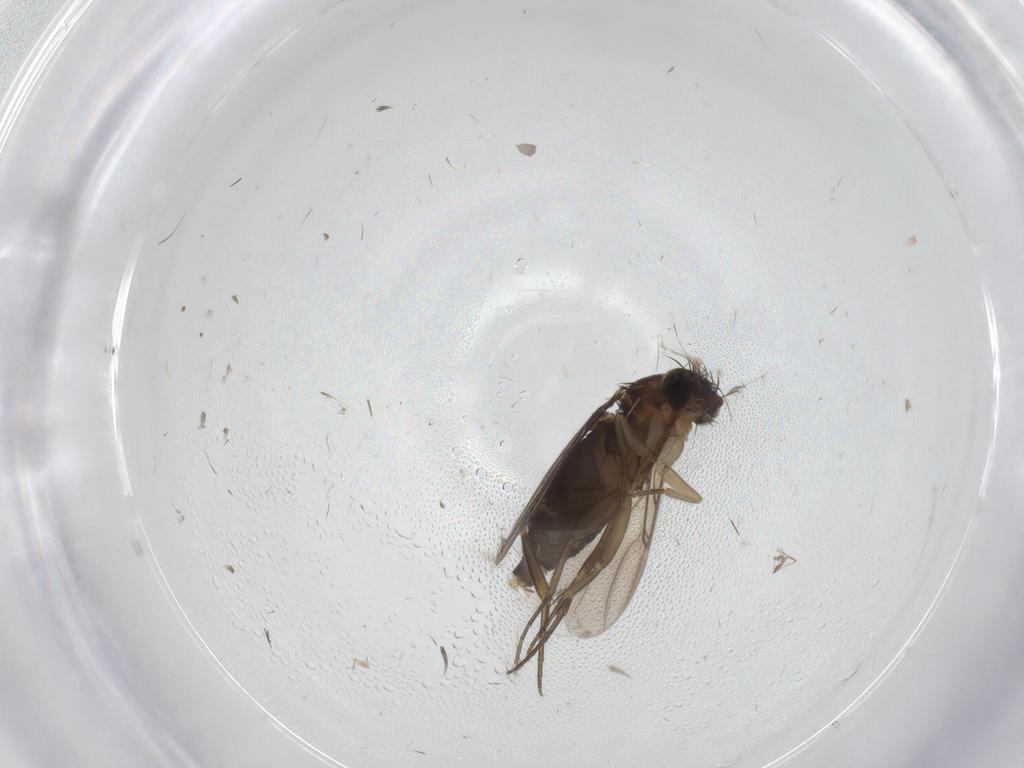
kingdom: Animalia
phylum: Arthropoda
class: Insecta
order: Diptera
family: Phoridae
